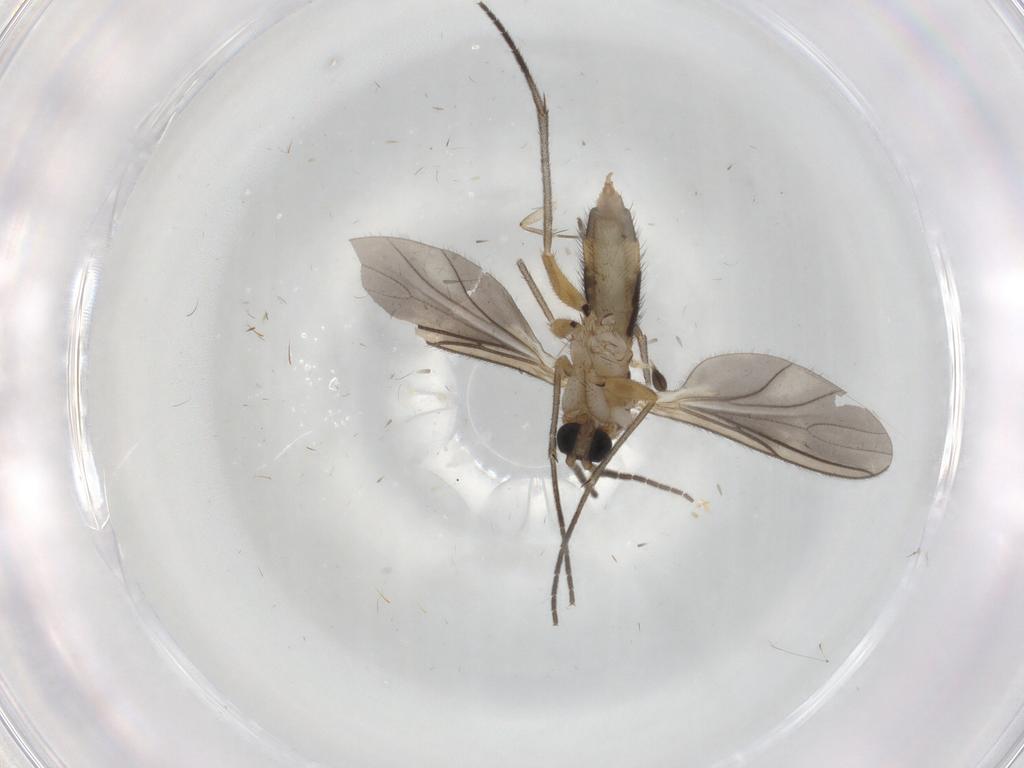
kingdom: Animalia
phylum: Arthropoda
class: Insecta
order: Diptera
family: Sciaridae
